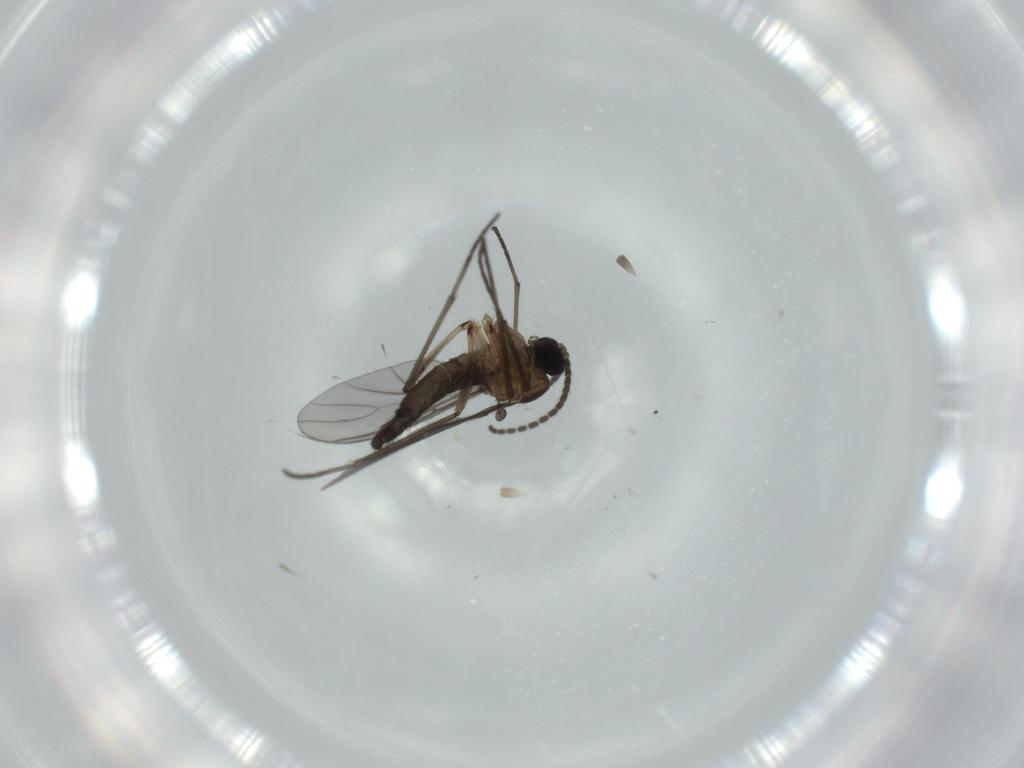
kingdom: Animalia
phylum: Arthropoda
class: Insecta
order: Diptera
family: Sciaridae
